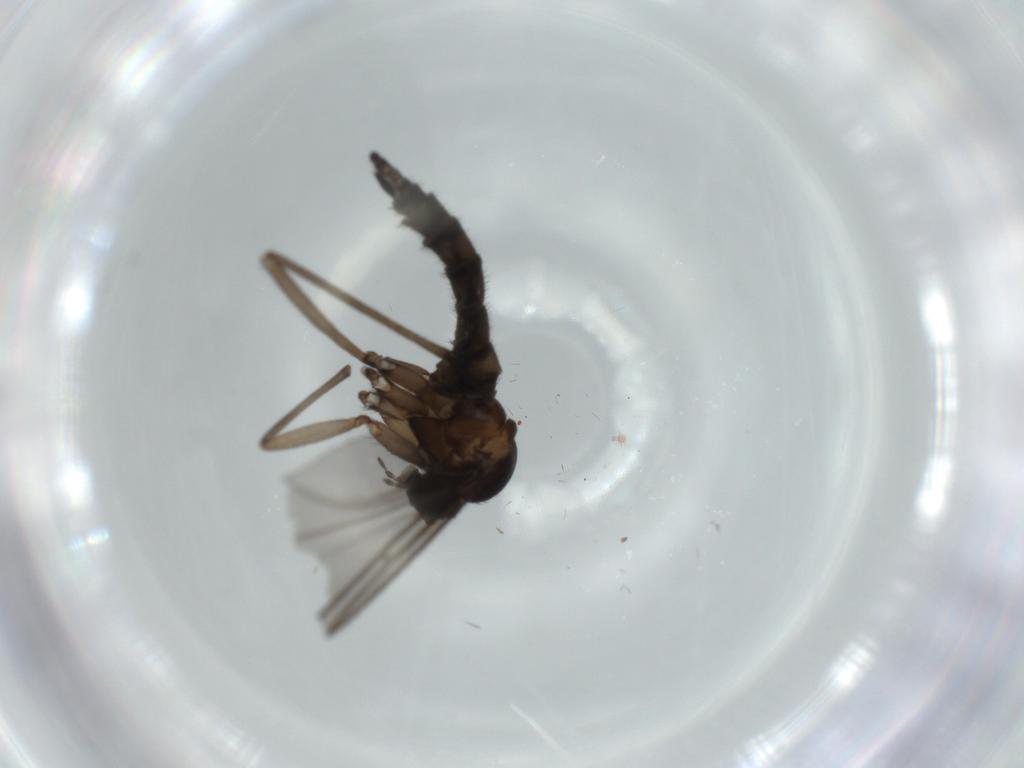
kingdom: Animalia
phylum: Arthropoda
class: Insecta
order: Diptera
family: Sciaridae
